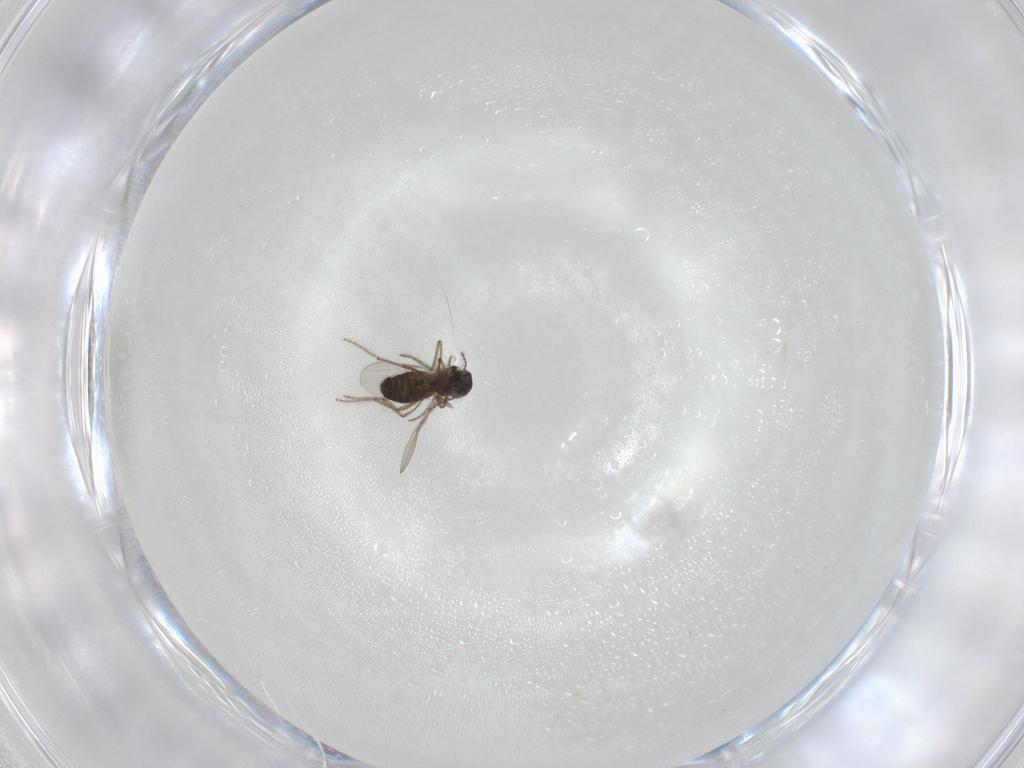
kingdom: Animalia
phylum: Arthropoda
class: Insecta
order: Diptera
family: Ceratopogonidae
